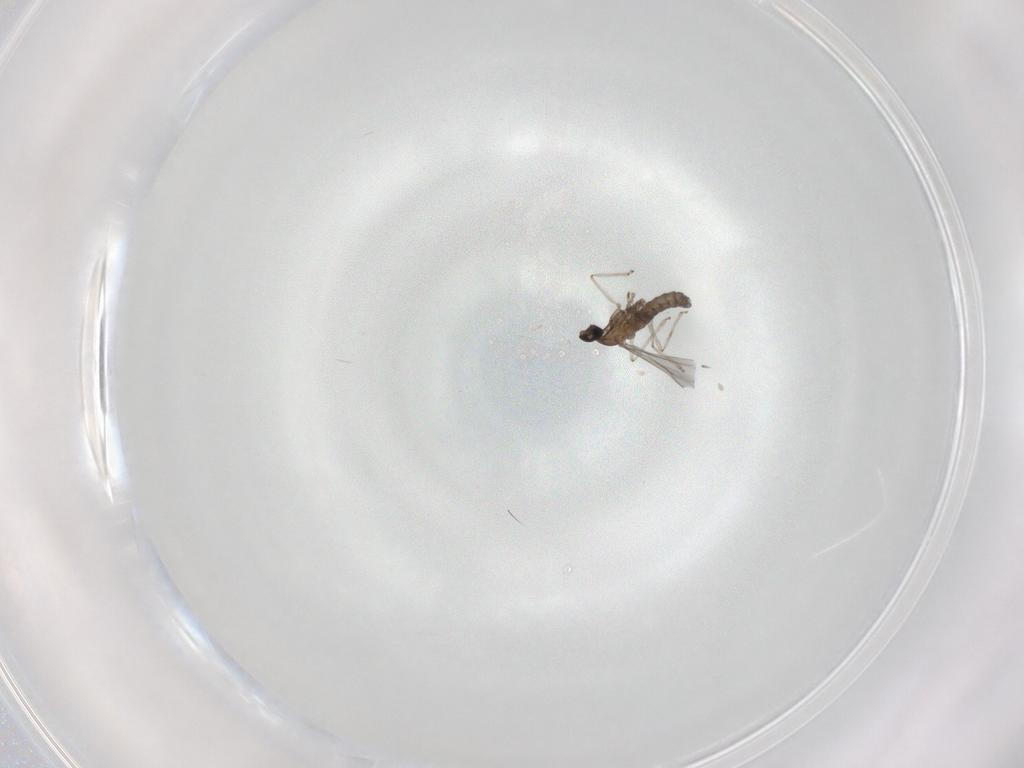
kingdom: Animalia
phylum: Arthropoda
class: Insecta
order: Diptera
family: Cecidomyiidae
